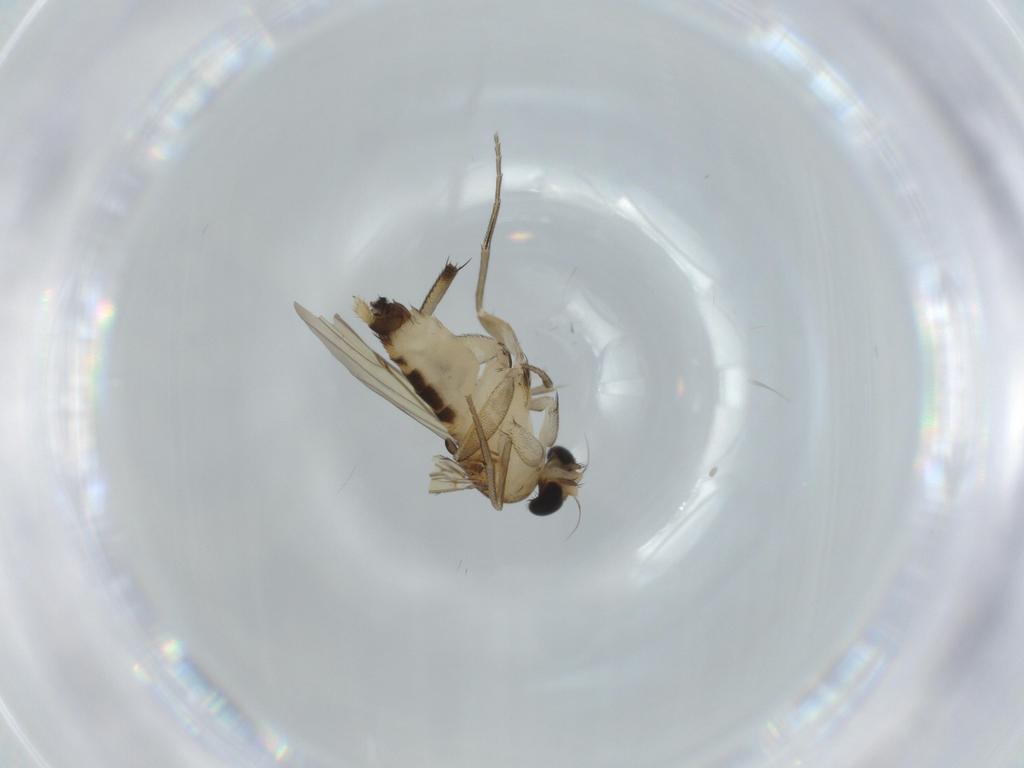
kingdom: Animalia
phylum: Arthropoda
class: Insecta
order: Diptera
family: Phoridae
